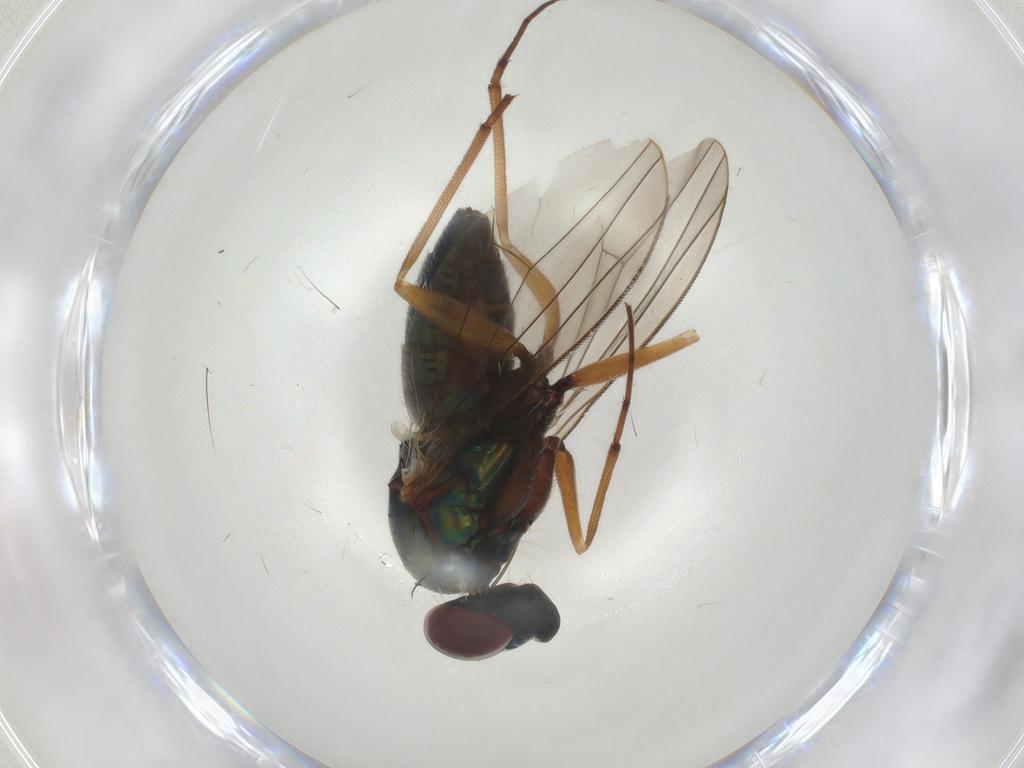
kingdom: Animalia
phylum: Arthropoda
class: Insecta
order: Diptera
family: Dolichopodidae
